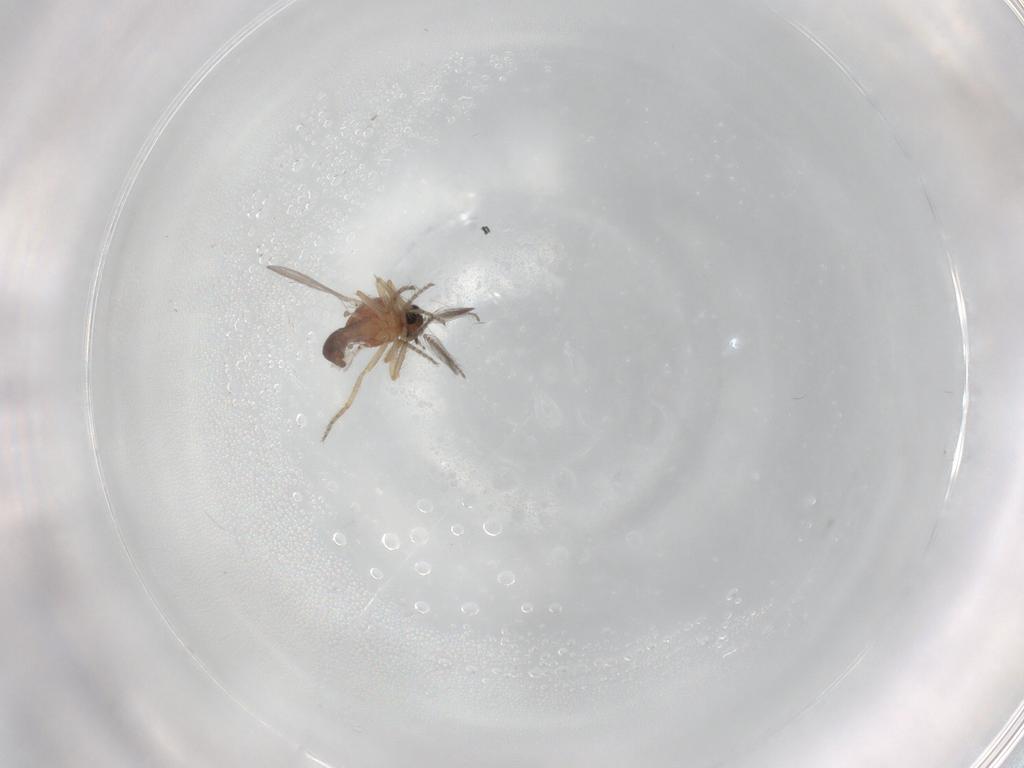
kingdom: Animalia
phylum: Arthropoda
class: Insecta
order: Diptera
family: Ceratopogonidae
